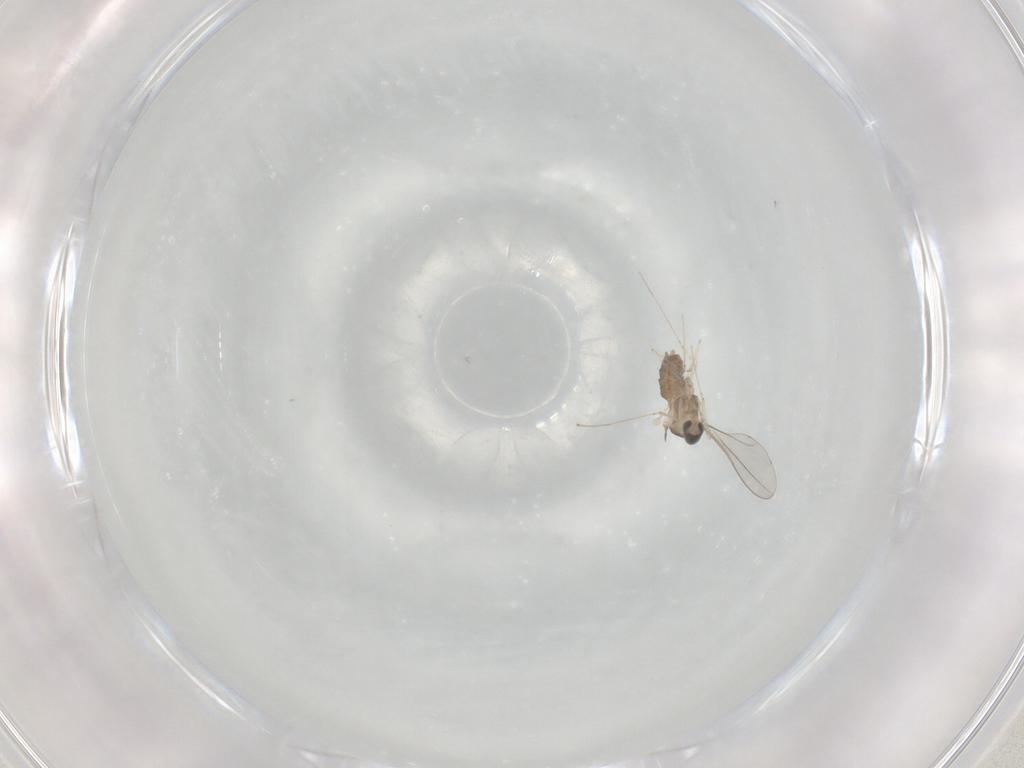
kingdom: Animalia
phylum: Arthropoda
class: Insecta
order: Diptera
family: Cecidomyiidae
